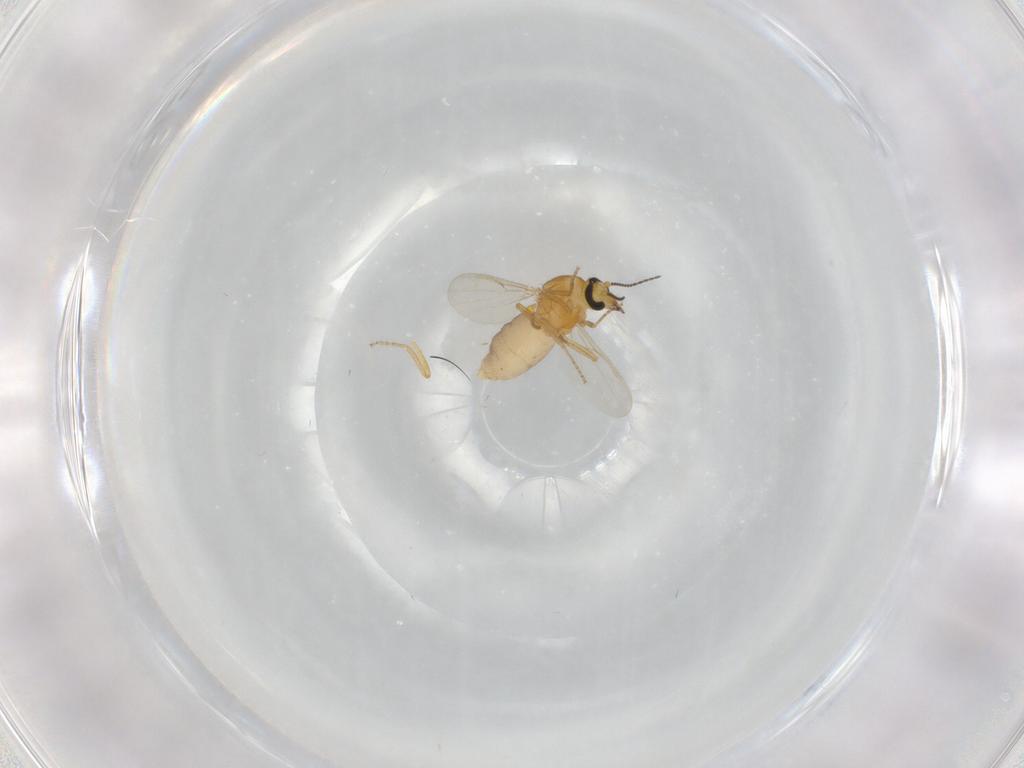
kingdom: Animalia
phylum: Arthropoda
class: Insecta
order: Diptera
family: Ceratopogonidae
